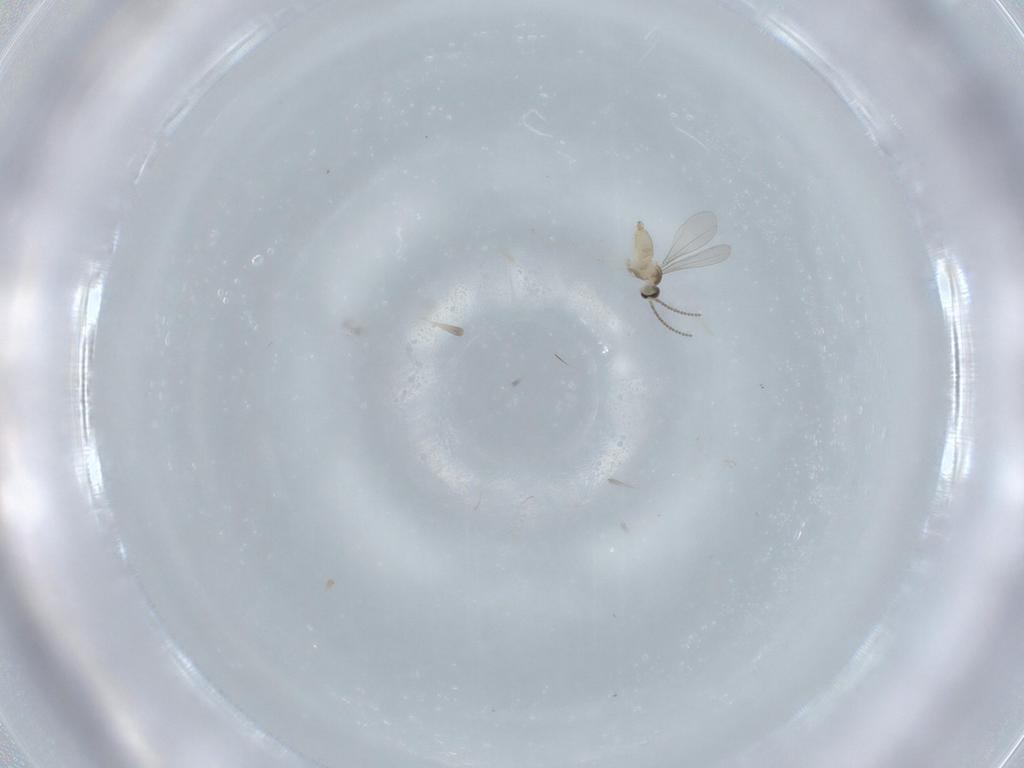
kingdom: Animalia
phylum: Arthropoda
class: Insecta
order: Diptera
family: Cecidomyiidae
